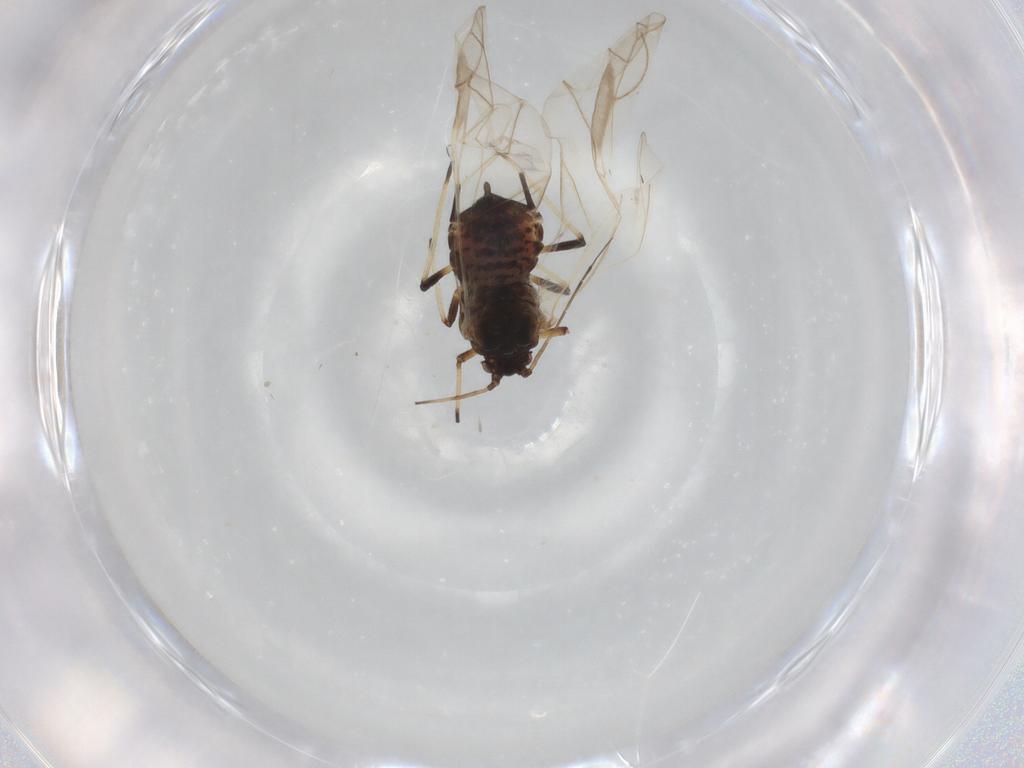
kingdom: Animalia
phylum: Arthropoda
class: Insecta
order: Hemiptera
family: Aphididae
